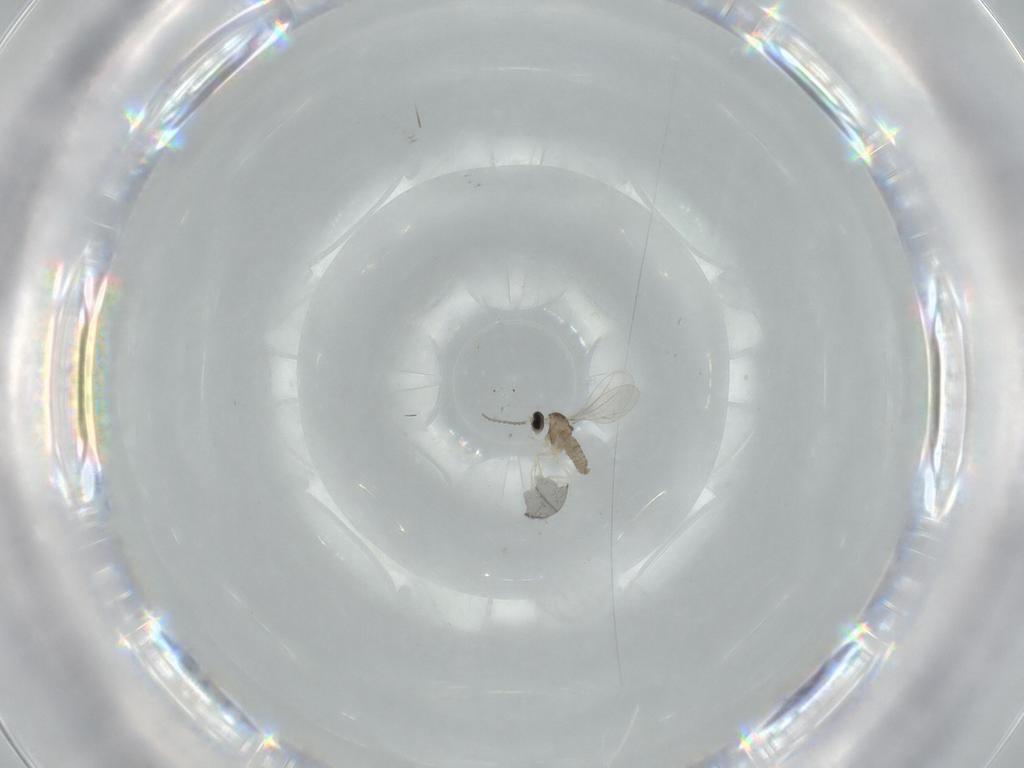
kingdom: Animalia
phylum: Arthropoda
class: Insecta
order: Diptera
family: Cecidomyiidae
